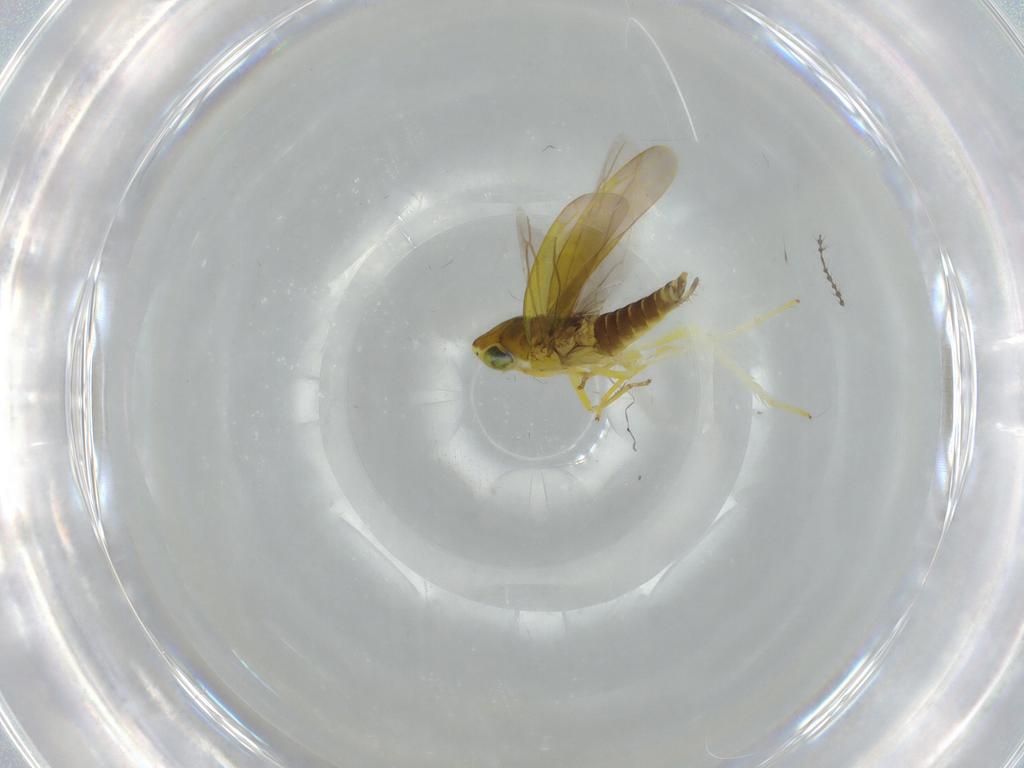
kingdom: Animalia
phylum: Arthropoda
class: Insecta
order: Hemiptera
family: Cicadellidae
